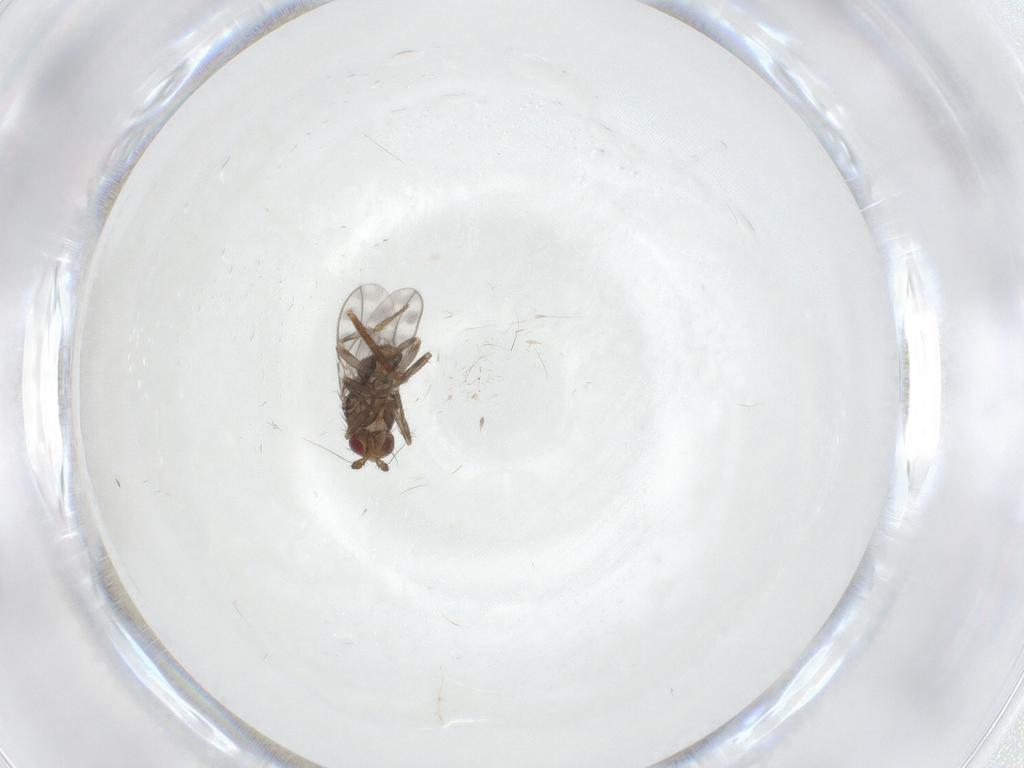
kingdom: Animalia
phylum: Arthropoda
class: Insecta
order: Diptera
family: Sphaeroceridae
